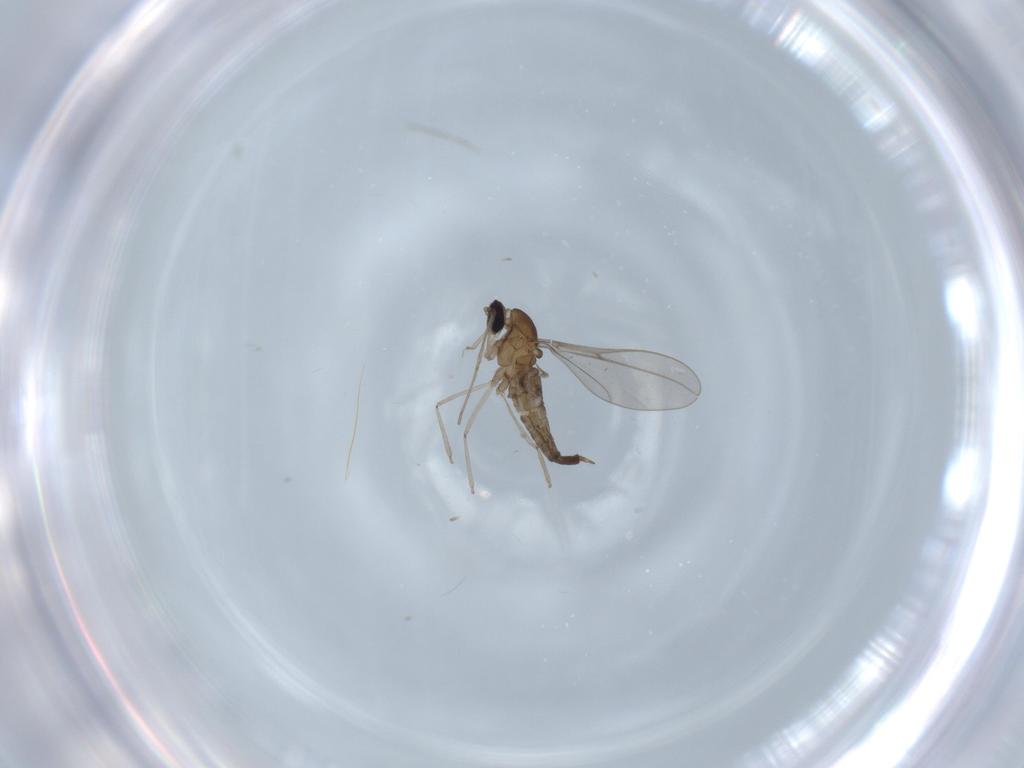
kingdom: Animalia
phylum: Arthropoda
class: Insecta
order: Diptera
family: Cecidomyiidae
